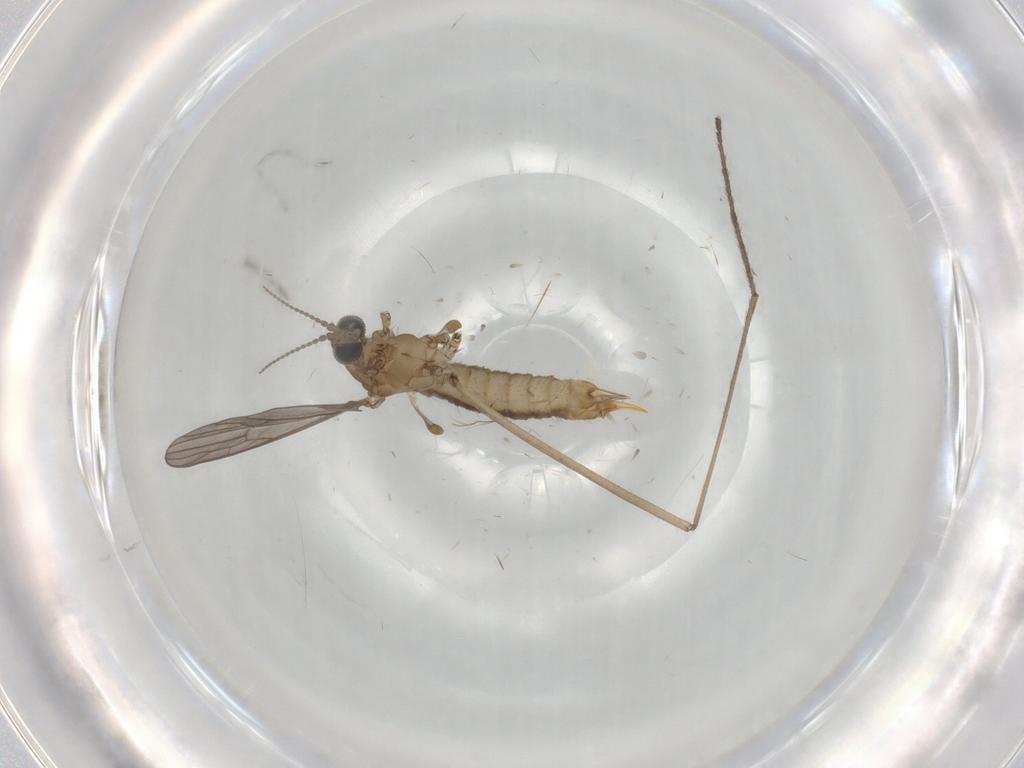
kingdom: Animalia
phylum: Arthropoda
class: Insecta
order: Diptera
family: Limoniidae
